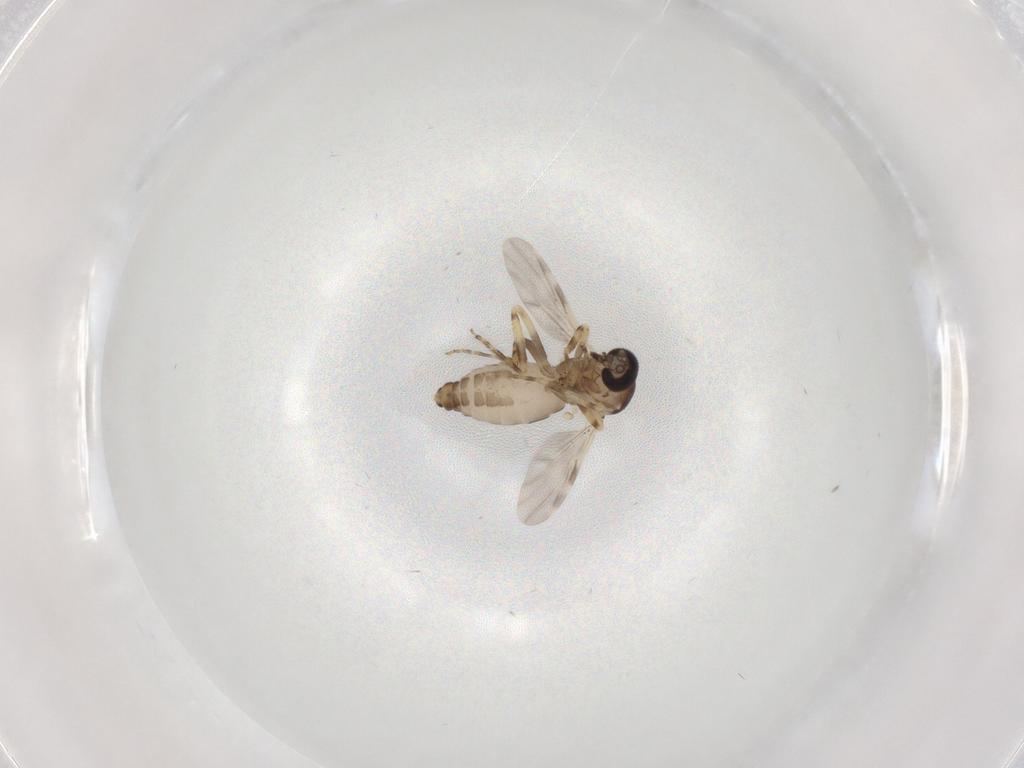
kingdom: Animalia
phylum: Arthropoda
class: Insecta
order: Diptera
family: Ceratopogonidae
